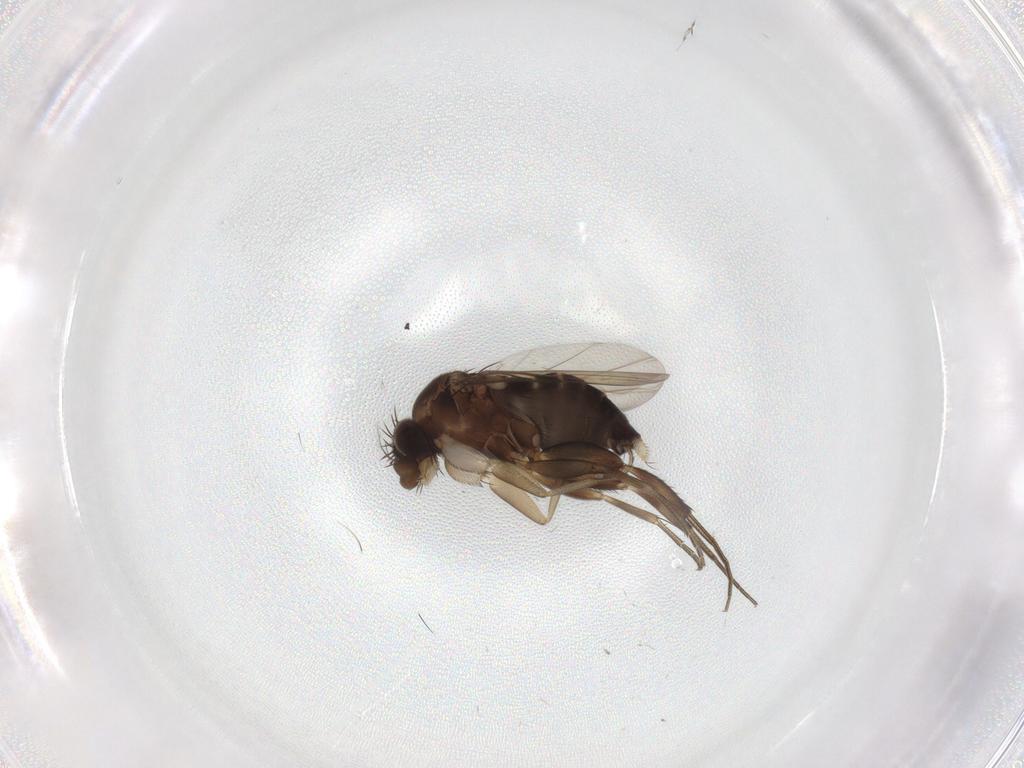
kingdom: Animalia
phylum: Arthropoda
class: Insecta
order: Diptera
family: Phoridae
